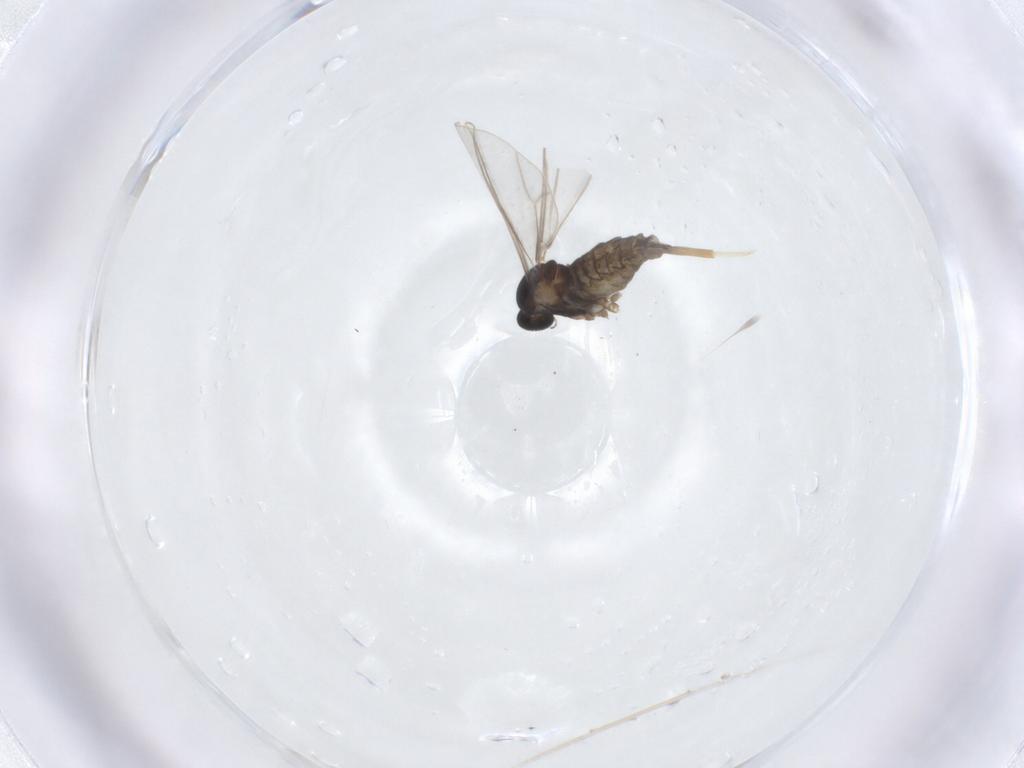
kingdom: Animalia
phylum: Arthropoda
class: Insecta
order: Diptera
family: Cecidomyiidae
